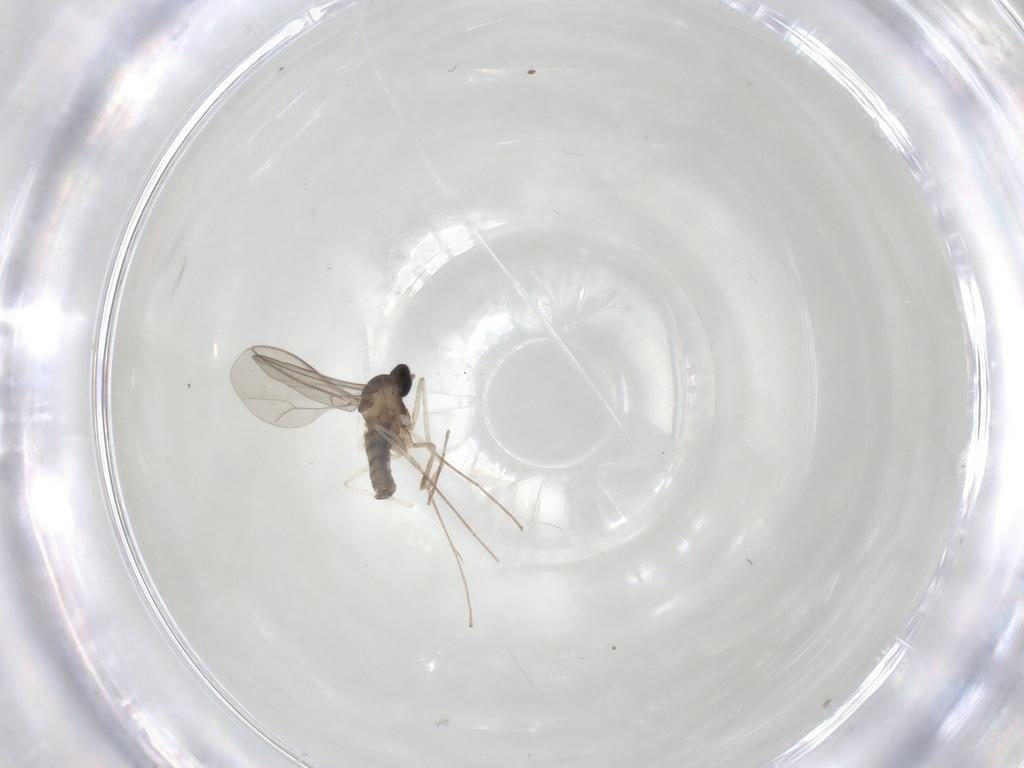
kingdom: Animalia
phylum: Arthropoda
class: Insecta
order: Diptera
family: Cecidomyiidae
